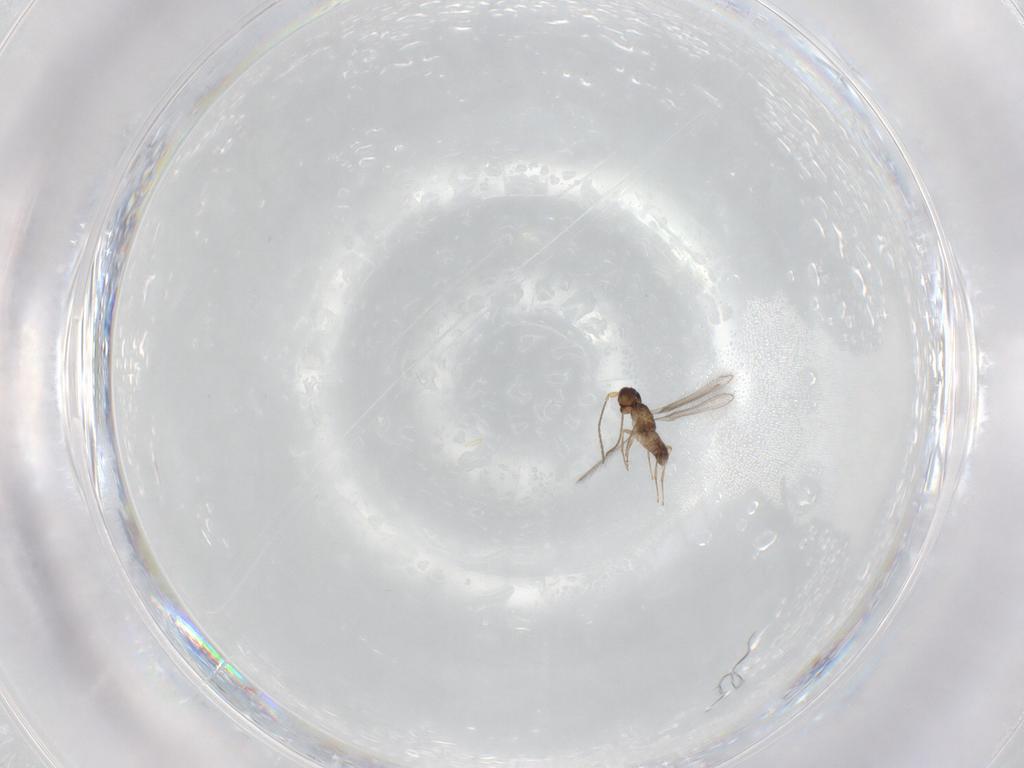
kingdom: Animalia
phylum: Arthropoda
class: Insecta
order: Hymenoptera
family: Mymaridae
